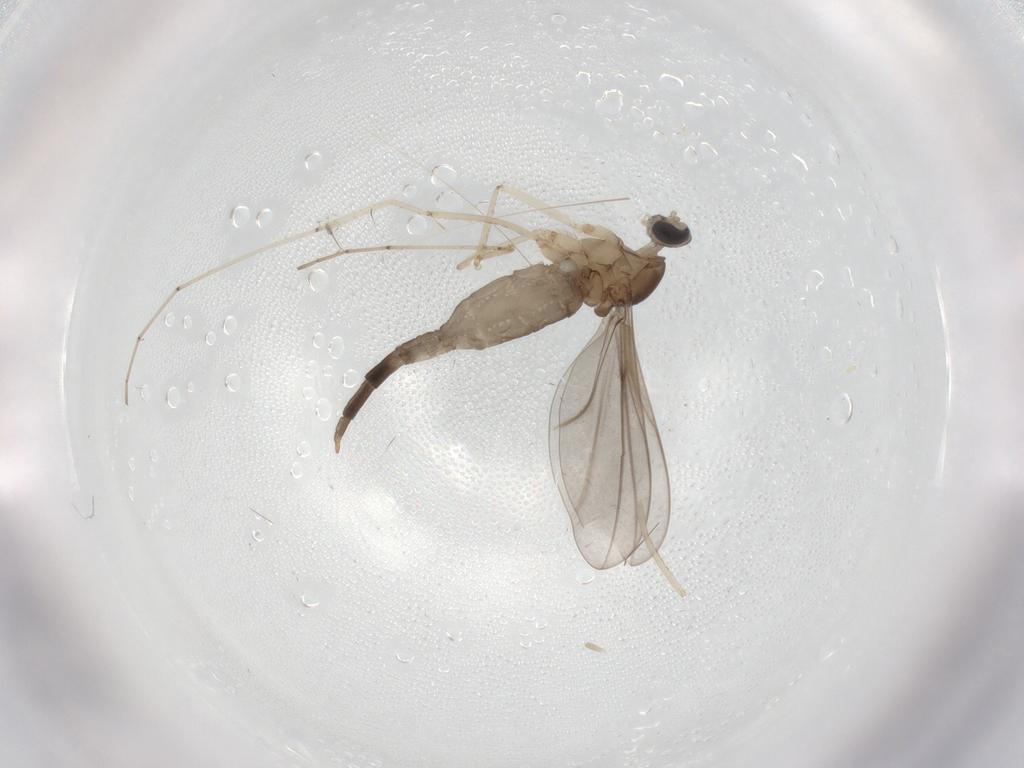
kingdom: Animalia
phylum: Arthropoda
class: Insecta
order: Diptera
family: Cecidomyiidae
